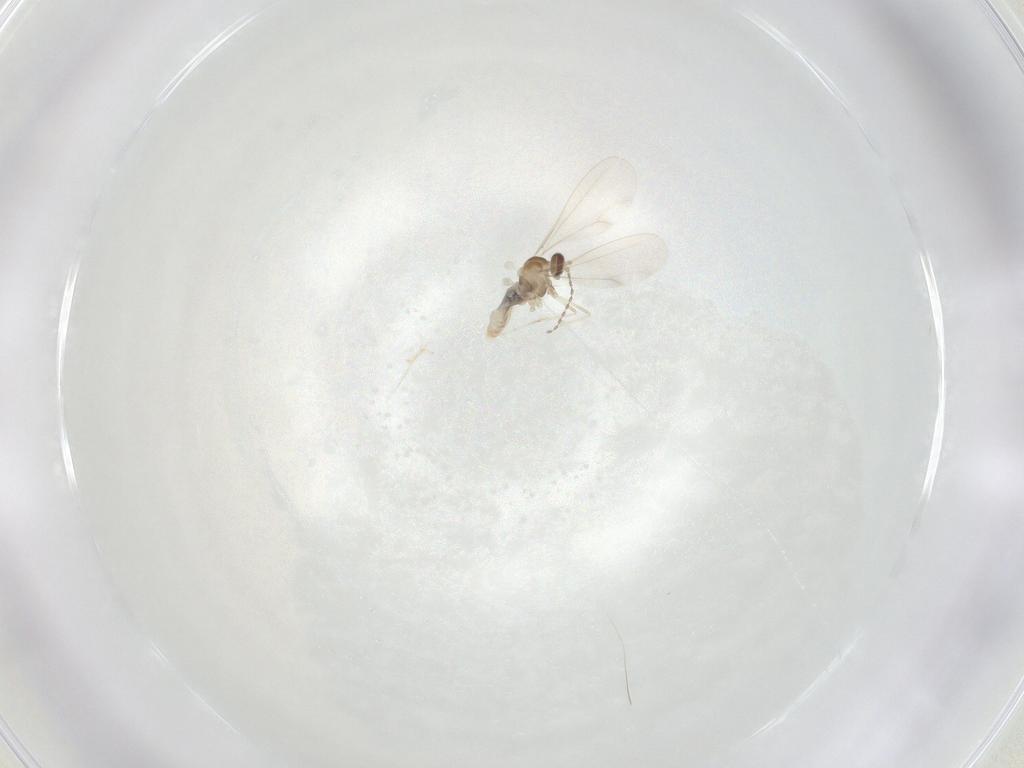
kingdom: Animalia
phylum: Arthropoda
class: Insecta
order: Diptera
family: Cecidomyiidae
